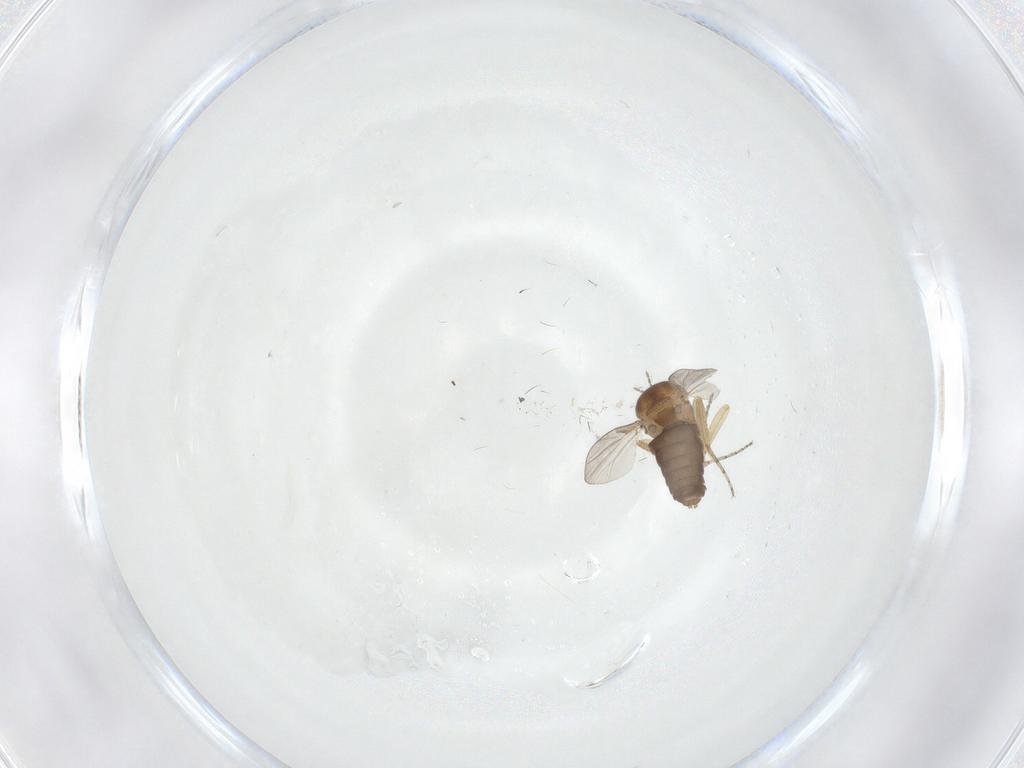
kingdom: Animalia
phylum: Arthropoda
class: Insecta
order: Diptera
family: Ceratopogonidae
